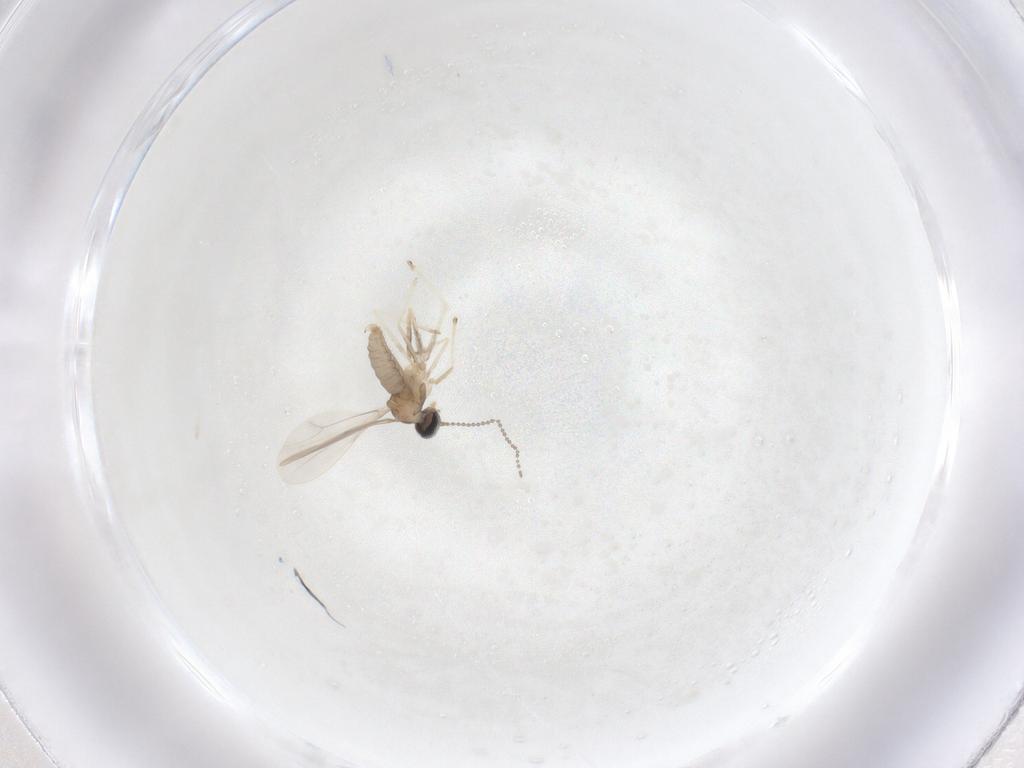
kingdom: Animalia
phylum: Arthropoda
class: Insecta
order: Diptera
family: Cecidomyiidae
